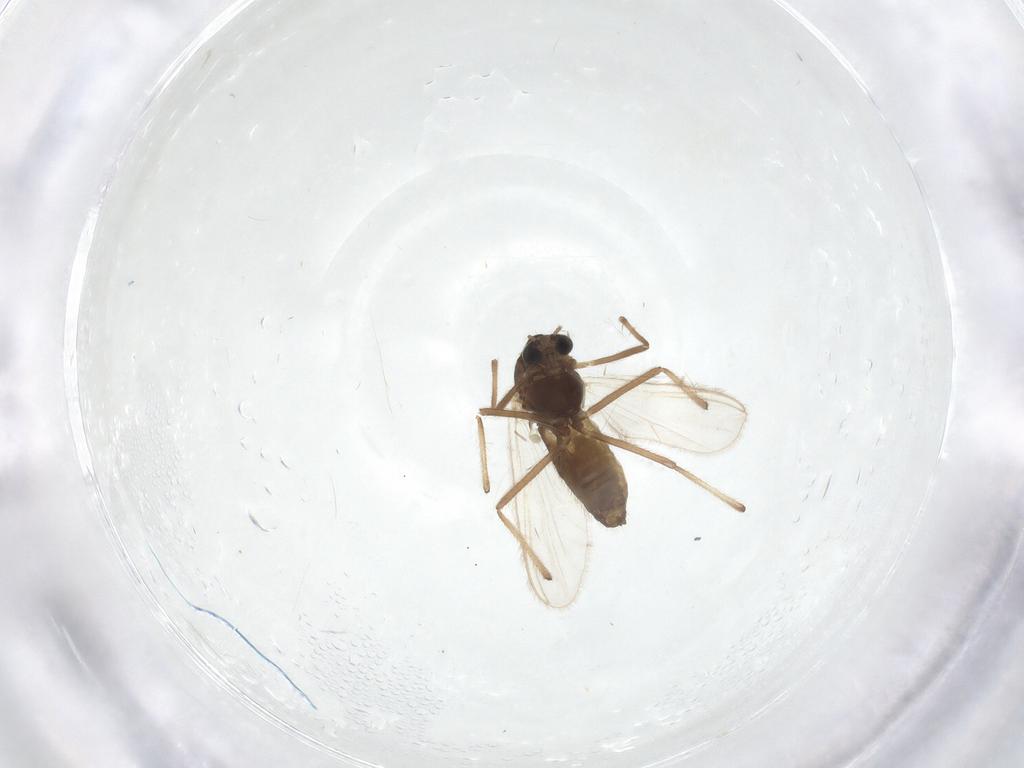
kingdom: Animalia
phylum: Arthropoda
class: Insecta
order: Diptera
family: Chironomidae
